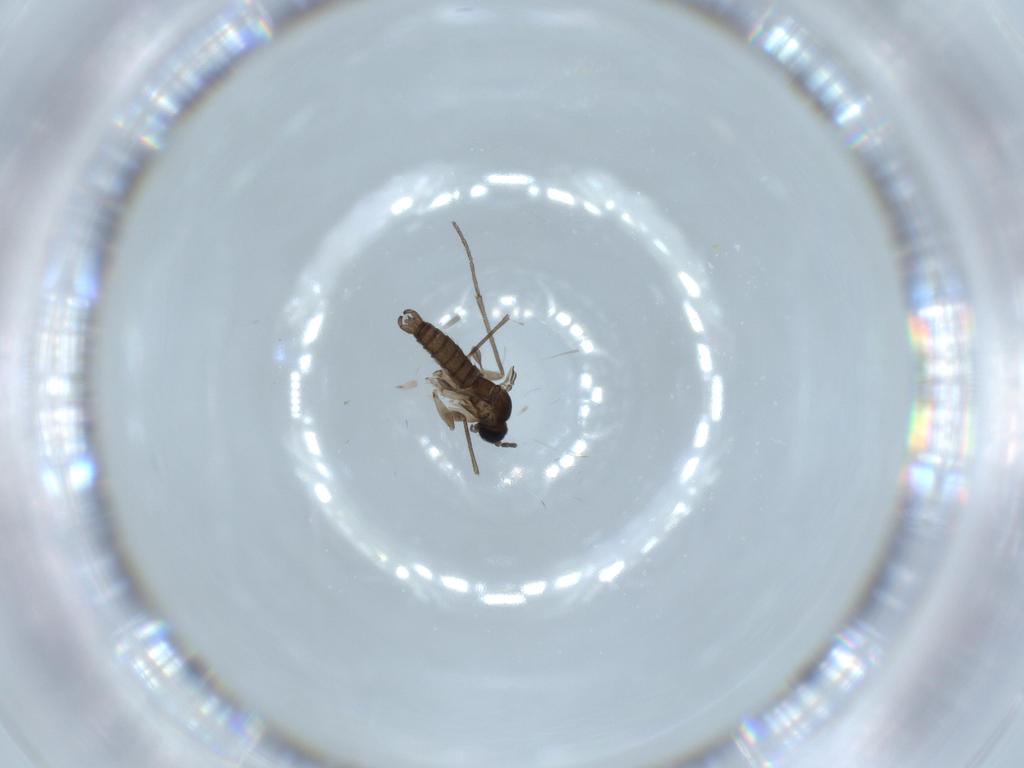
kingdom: Animalia
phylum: Arthropoda
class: Insecta
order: Diptera
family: Sciaridae
